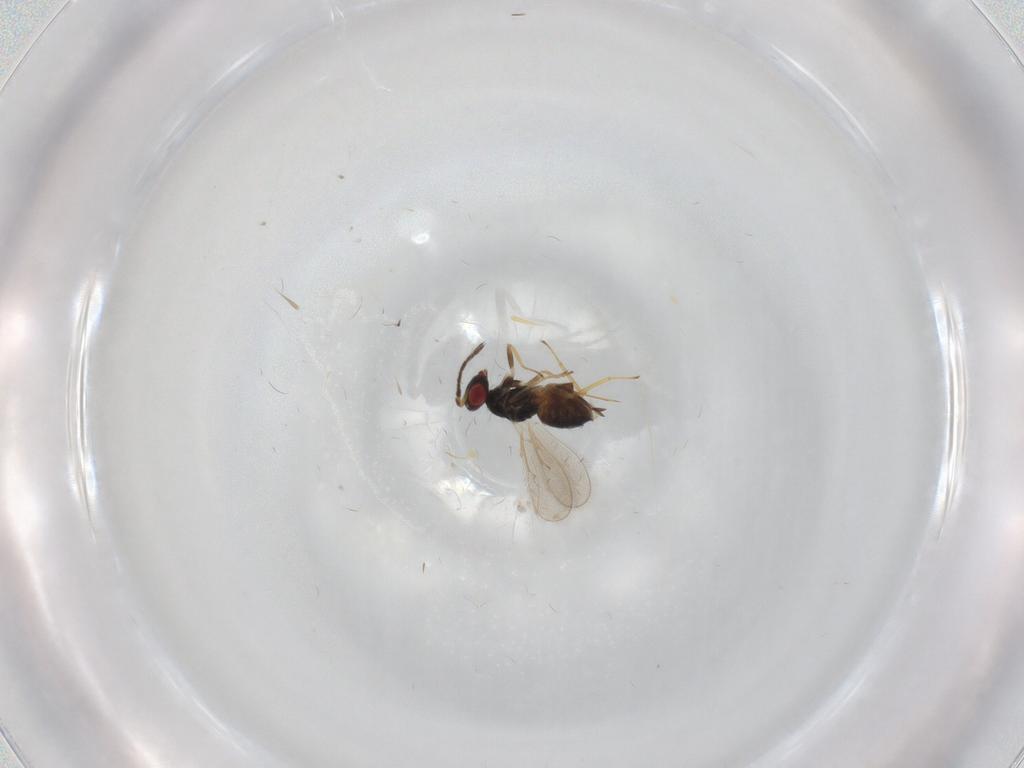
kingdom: Animalia
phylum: Arthropoda
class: Insecta
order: Hymenoptera
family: Eulophidae
